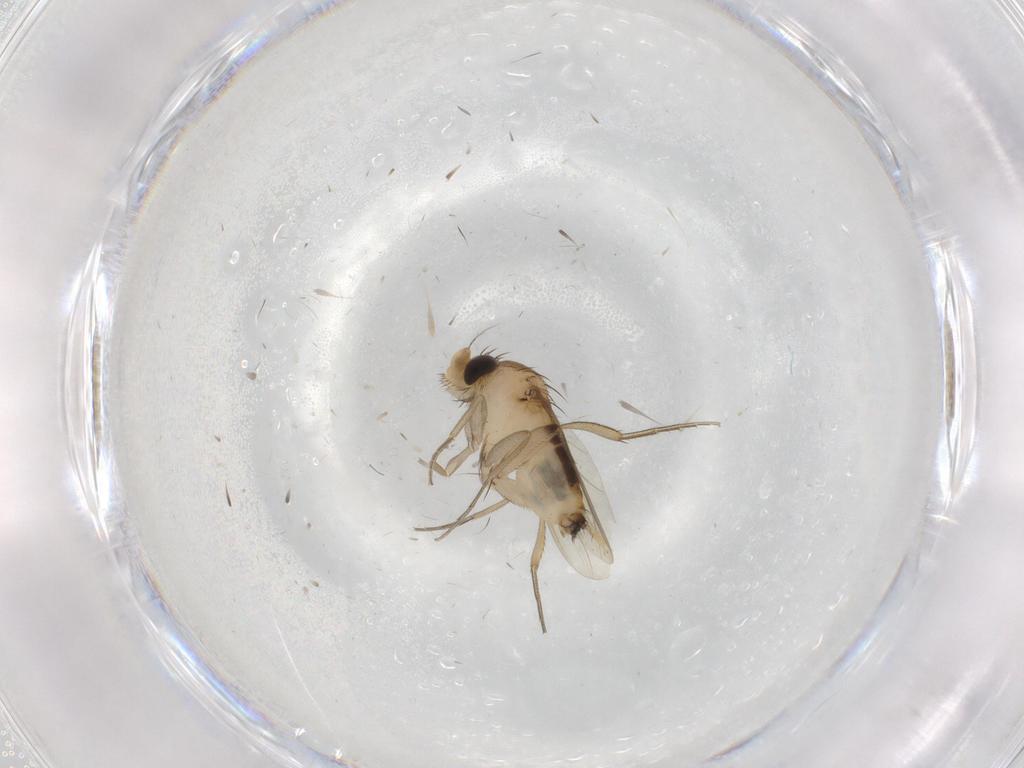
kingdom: Animalia
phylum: Arthropoda
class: Insecta
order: Diptera
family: Phoridae
